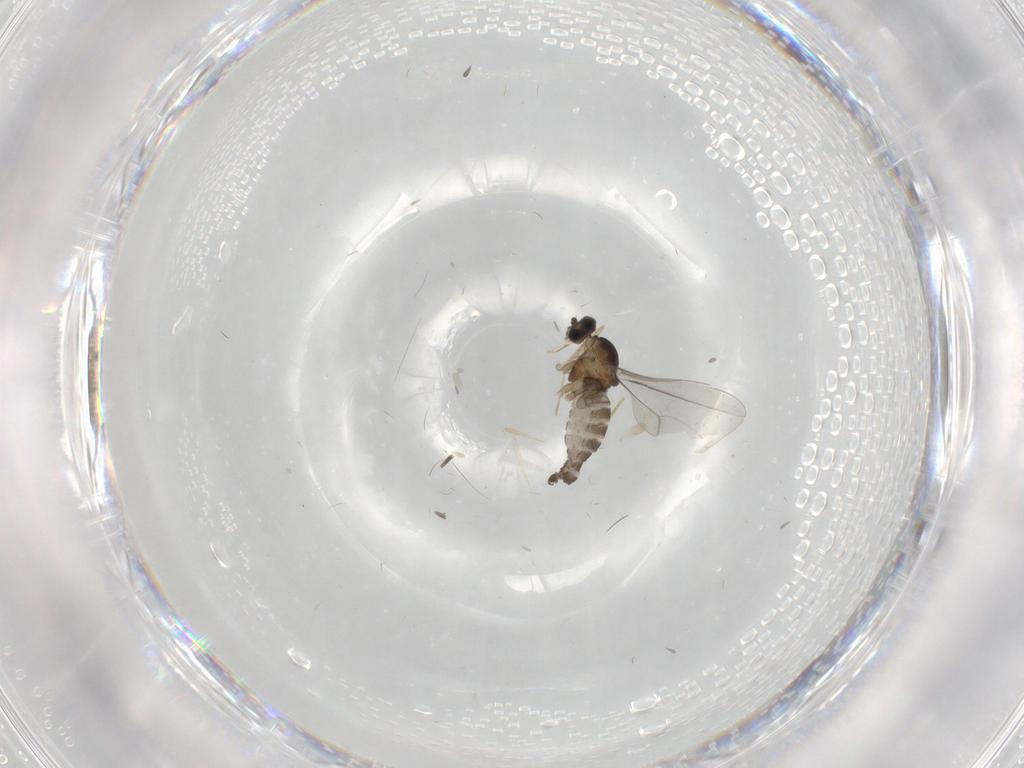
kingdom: Animalia
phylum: Arthropoda
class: Insecta
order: Diptera
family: Cecidomyiidae
